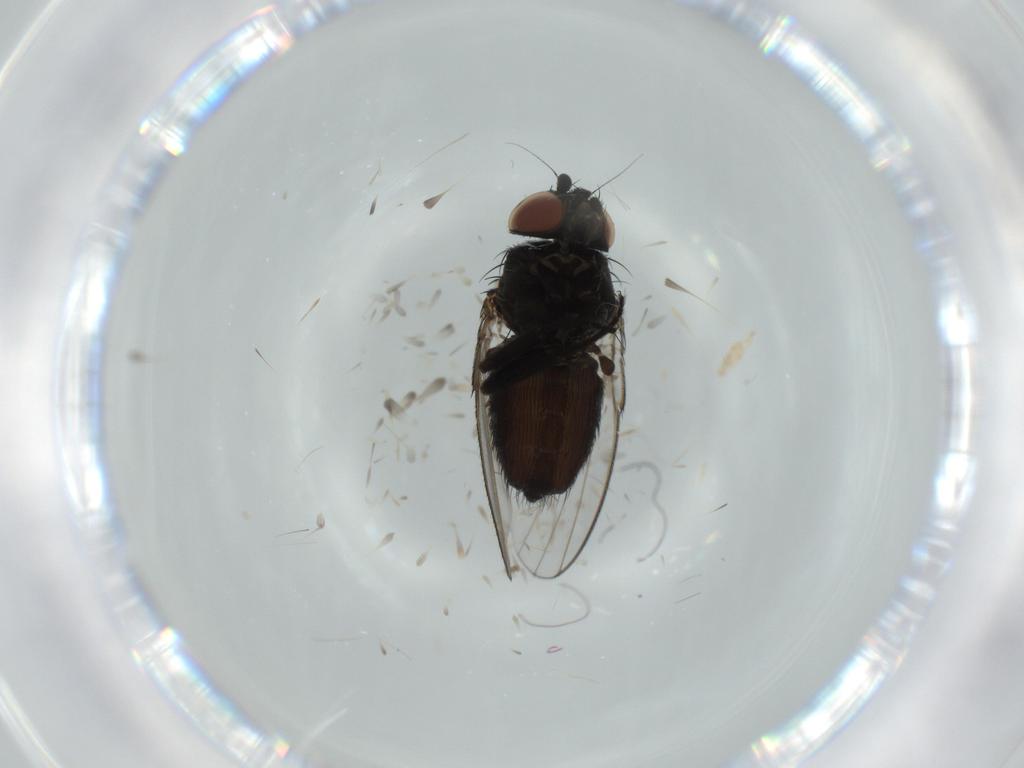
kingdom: Animalia
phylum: Arthropoda
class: Insecta
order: Diptera
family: Milichiidae
